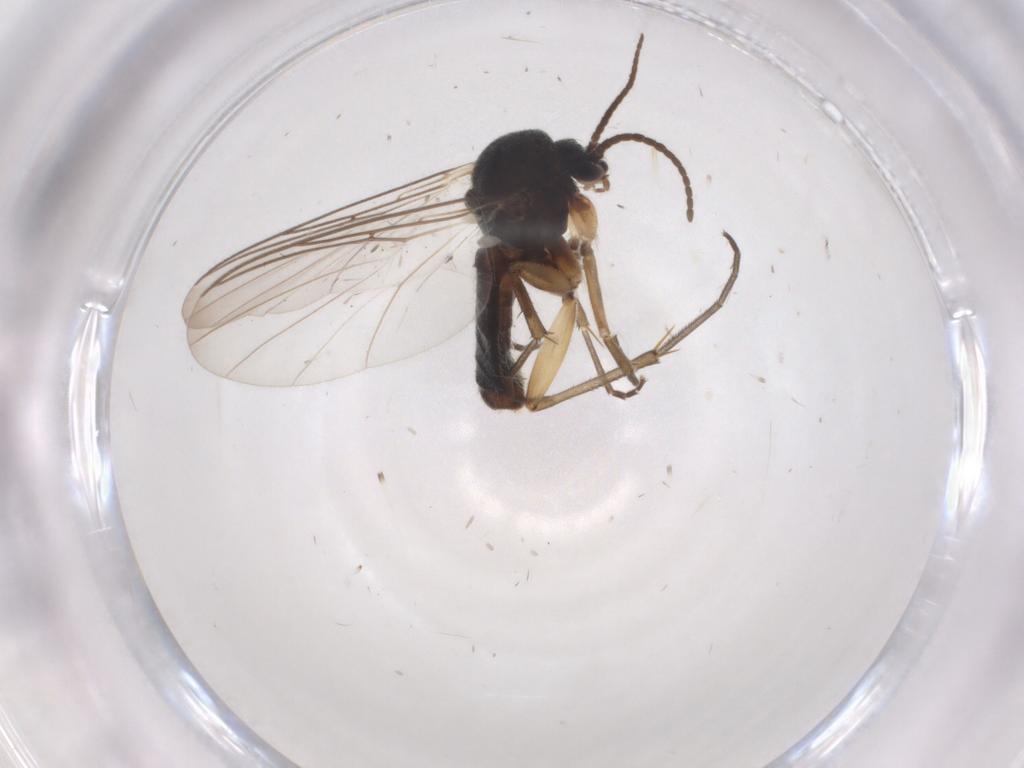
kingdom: Animalia
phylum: Arthropoda
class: Insecta
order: Diptera
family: Mycetophilidae
